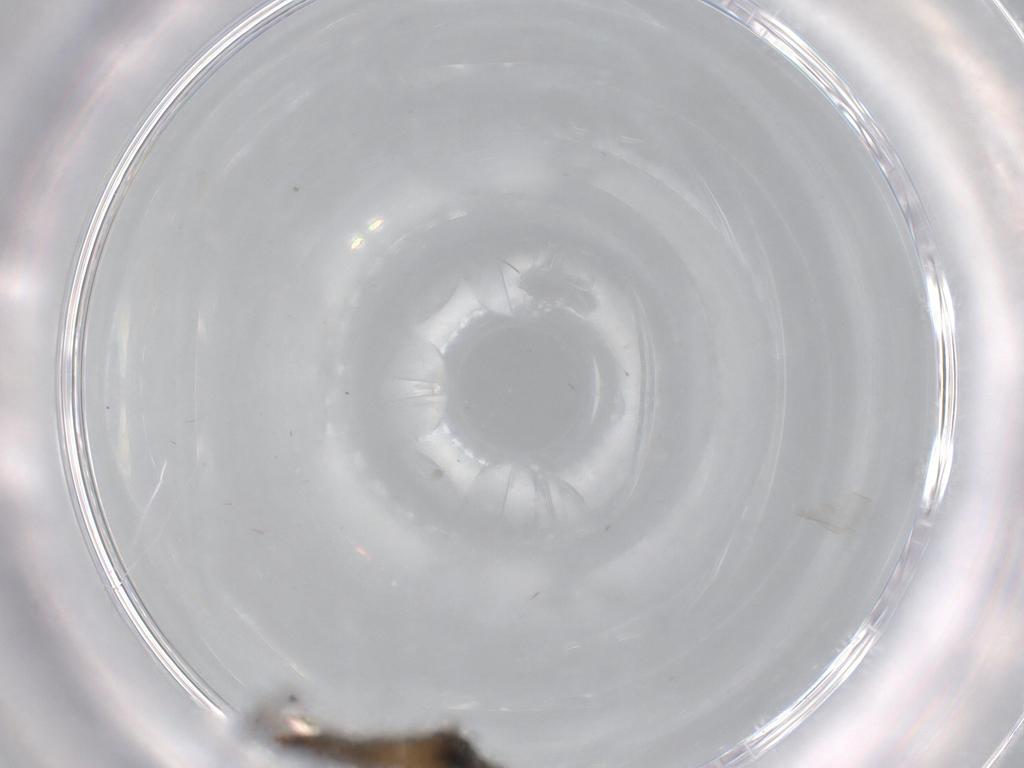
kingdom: Animalia
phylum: Arthropoda
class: Insecta
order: Diptera
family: Sciaridae
